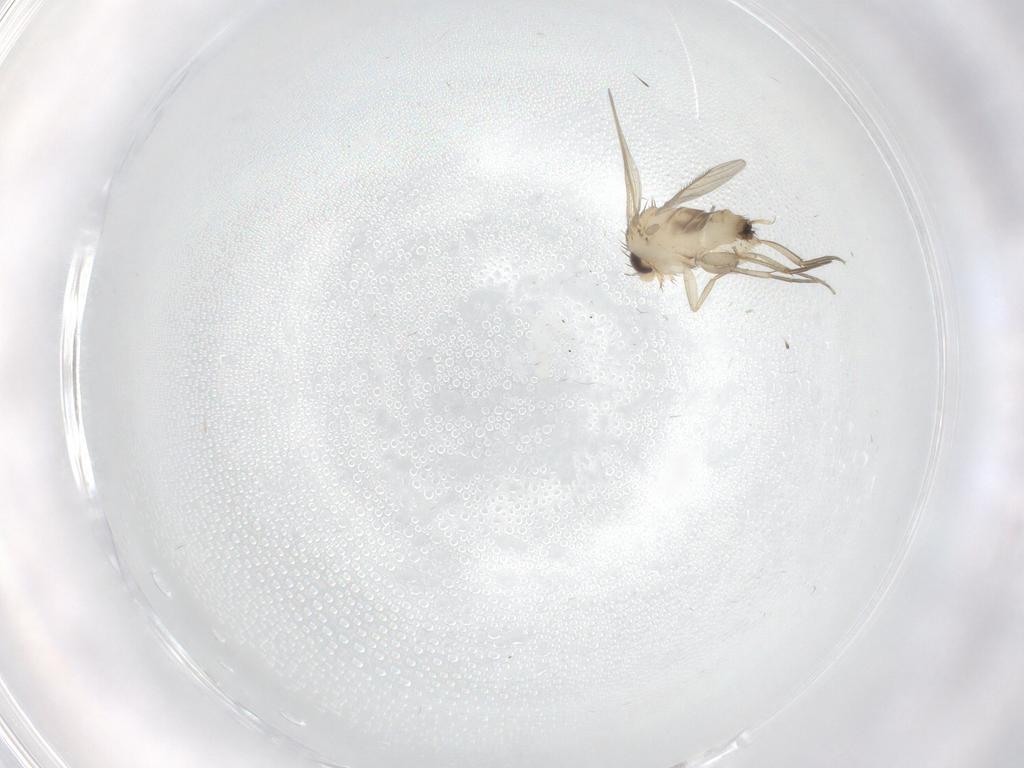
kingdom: Animalia
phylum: Arthropoda
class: Insecta
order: Diptera
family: Phoridae
